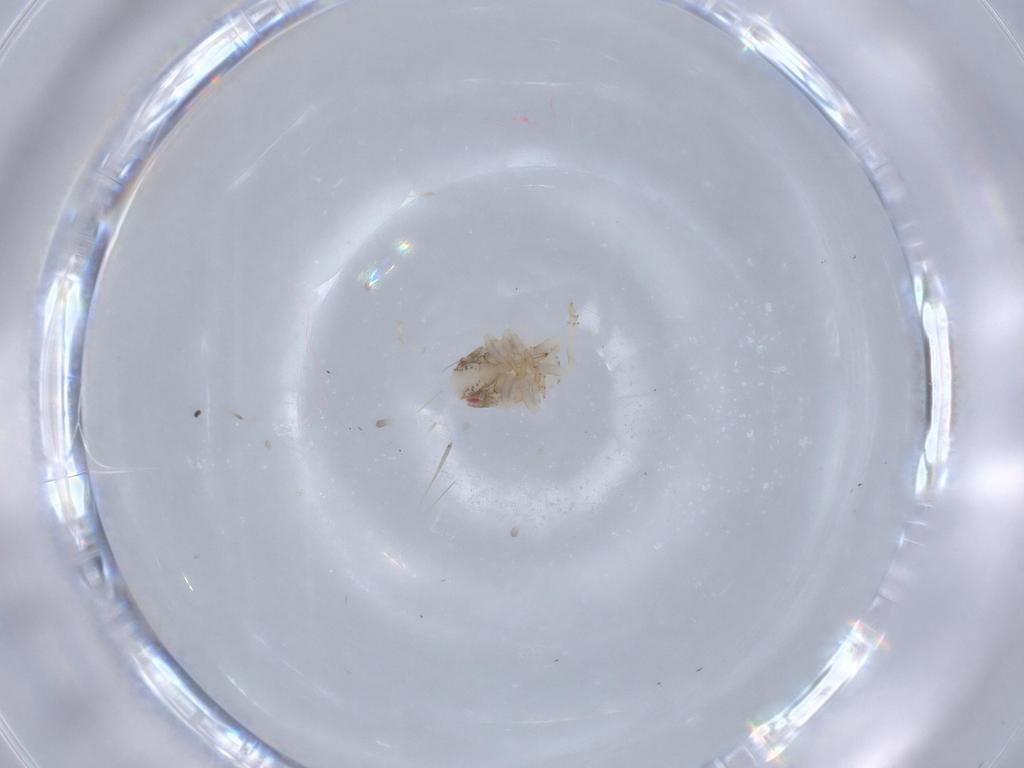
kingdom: Animalia
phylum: Arthropoda
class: Insecta
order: Hemiptera
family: Acanaloniidae
